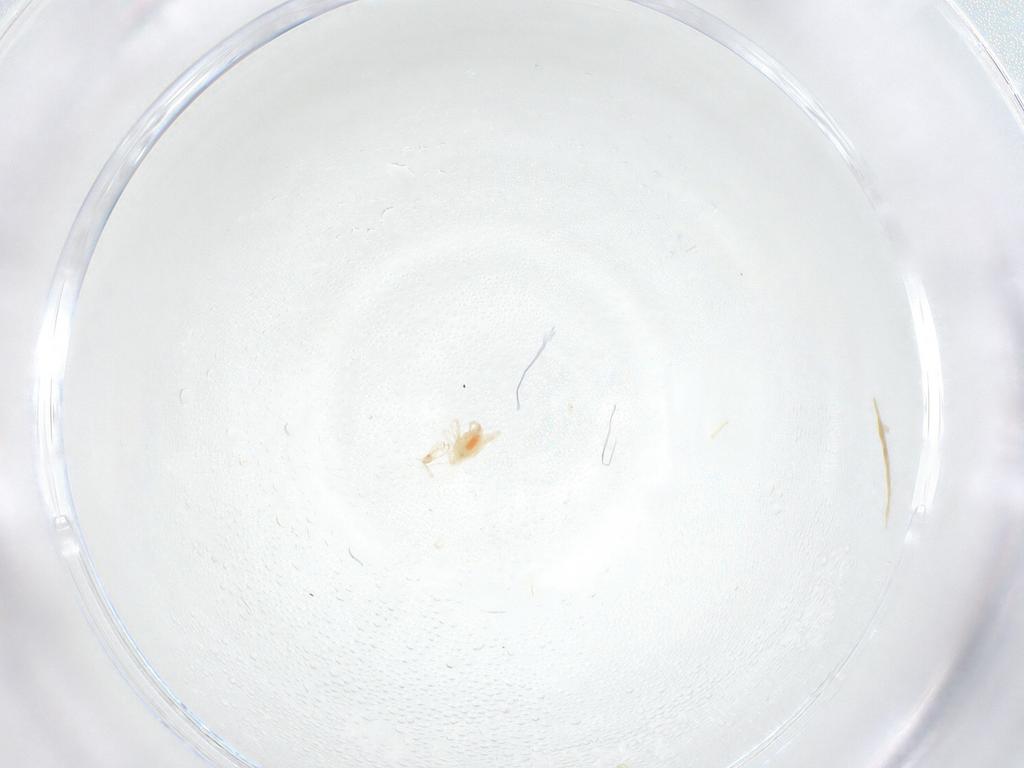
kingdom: Animalia
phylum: Arthropoda
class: Arachnida
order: Trombidiformes
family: Cunaxidae
